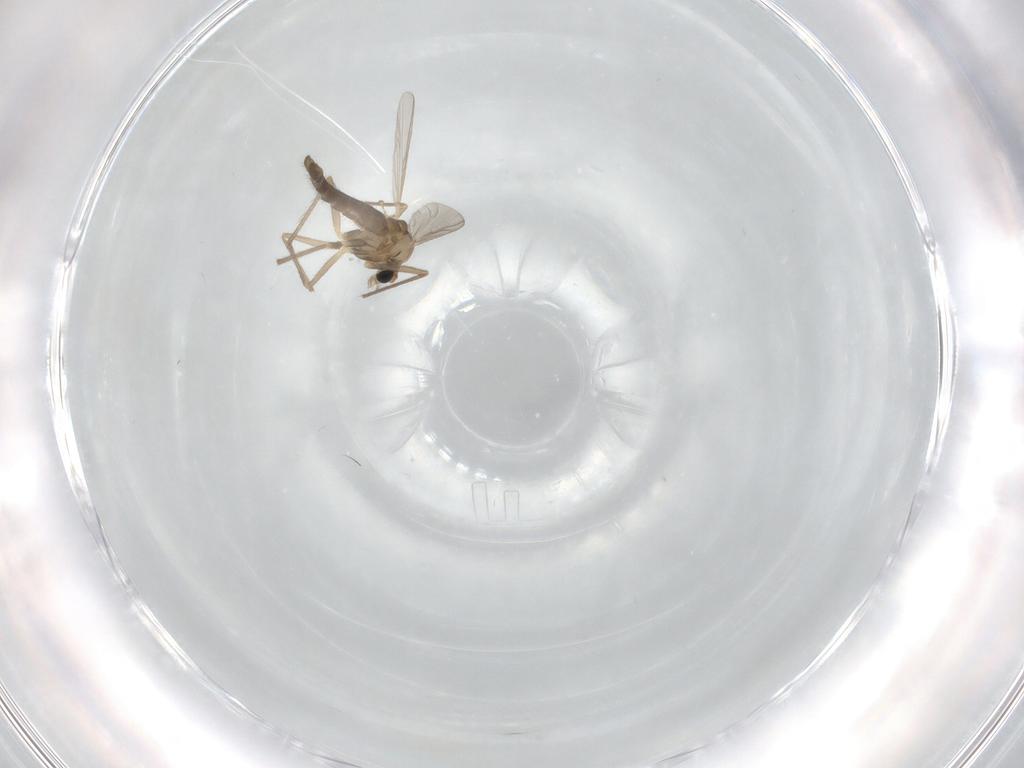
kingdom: Animalia
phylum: Arthropoda
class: Insecta
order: Diptera
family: Chironomidae
